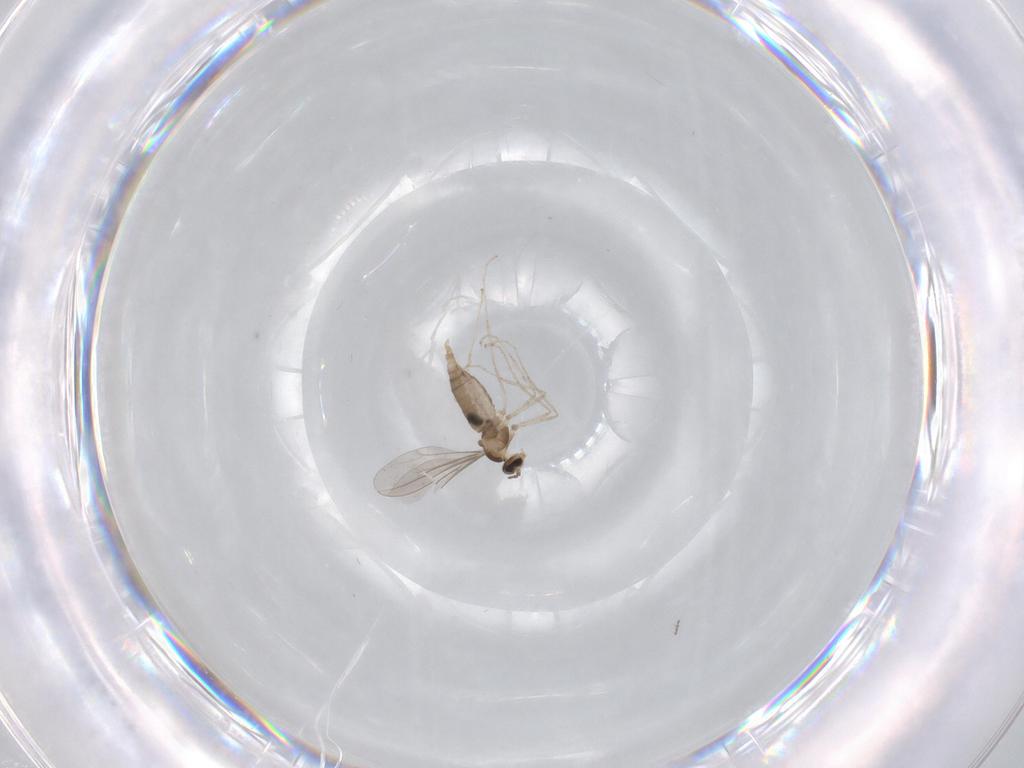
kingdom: Animalia
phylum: Arthropoda
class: Insecta
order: Diptera
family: Chironomidae
